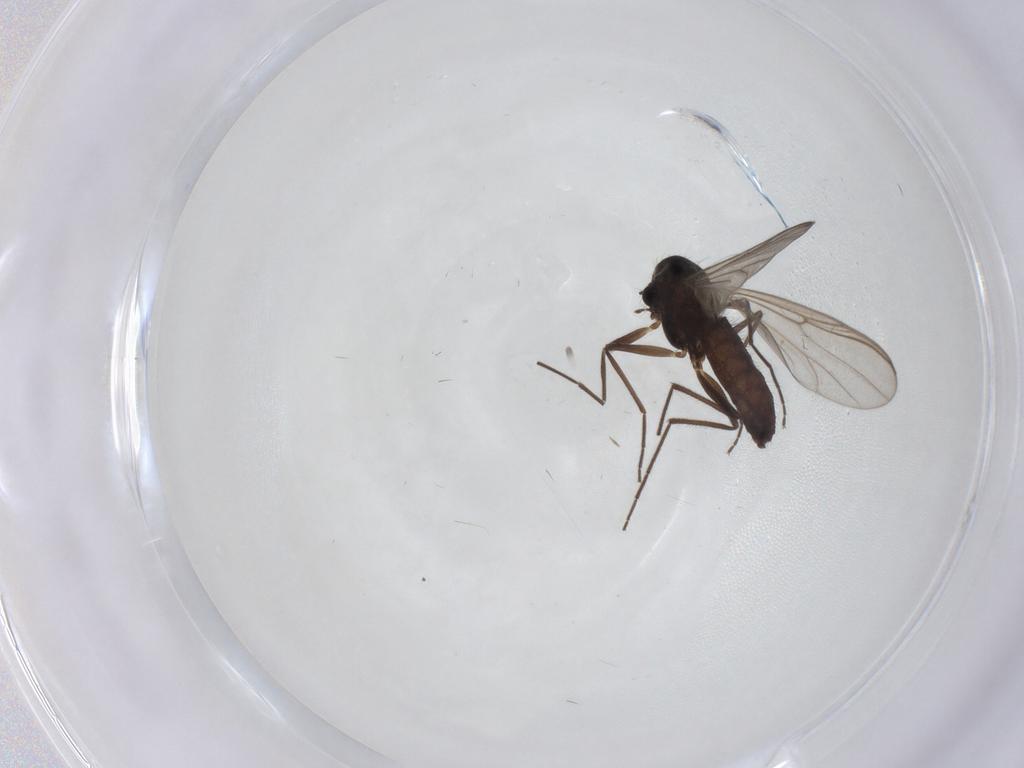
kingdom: Animalia
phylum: Arthropoda
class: Insecta
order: Diptera
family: Chironomidae
